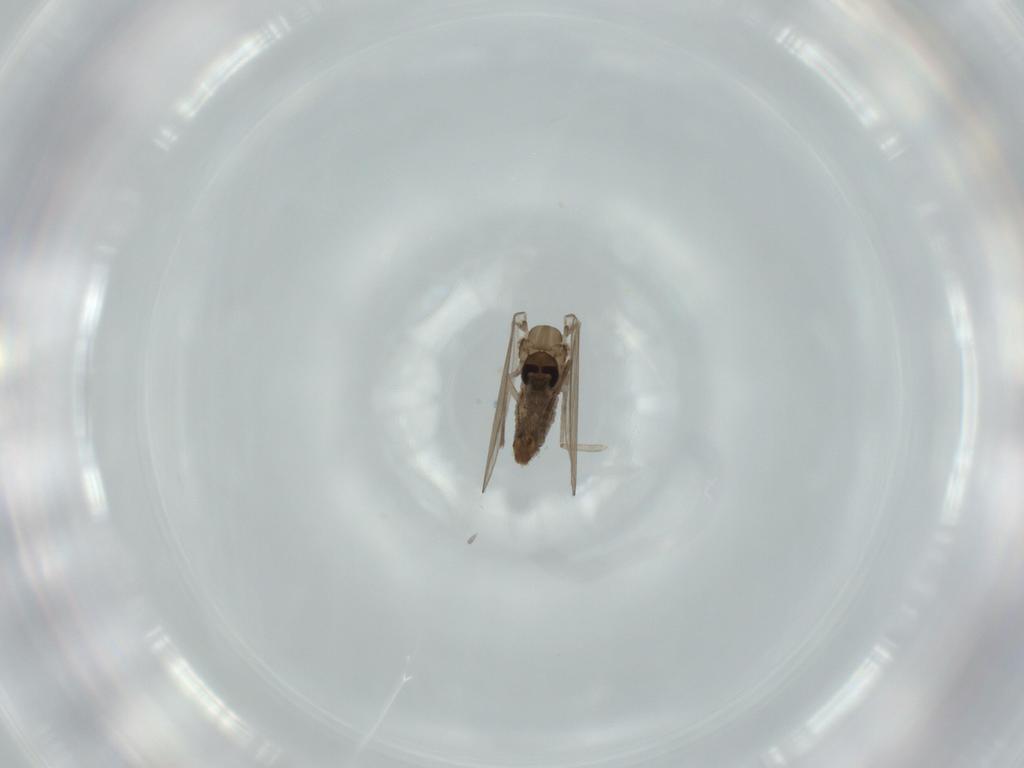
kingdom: Animalia
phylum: Arthropoda
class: Insecta
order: Diptera
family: Psychodidae
